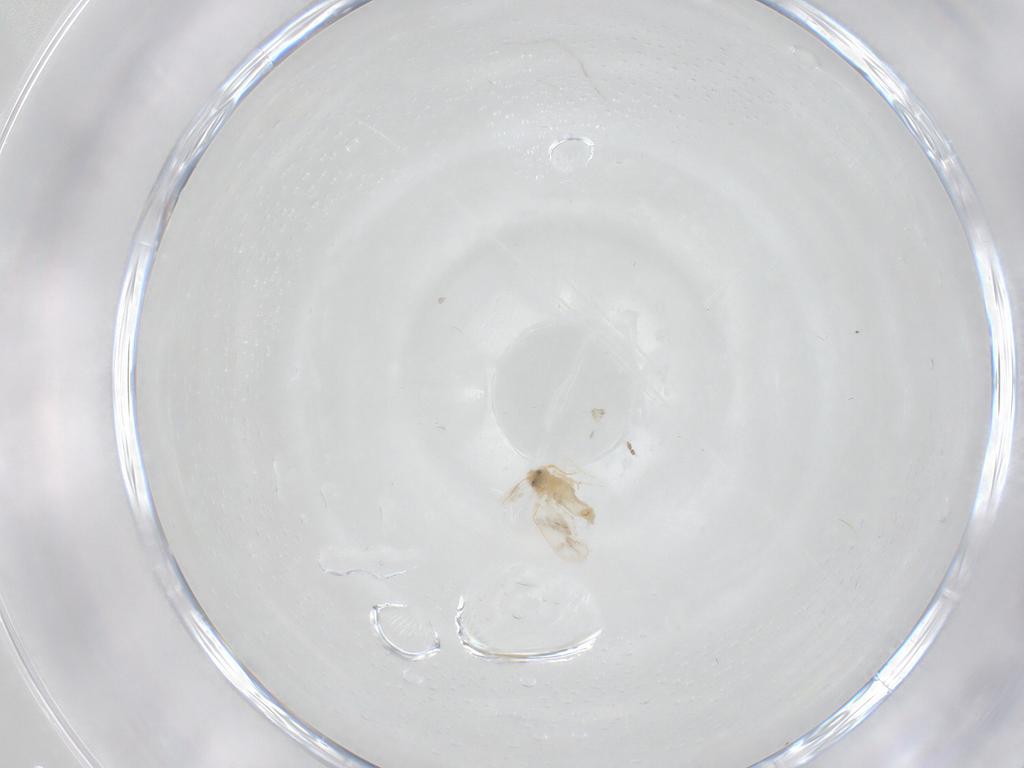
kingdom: Animalia
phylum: Arthropoda
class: Insecta
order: Hemiptera
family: Aleyrodidae
